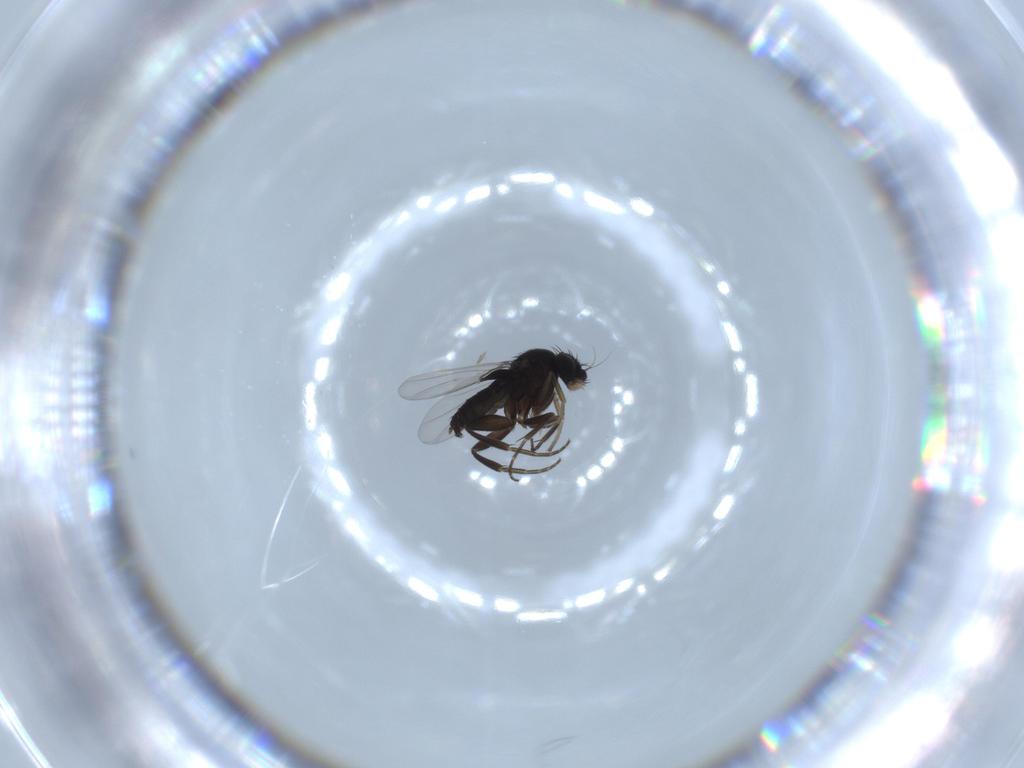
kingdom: Animalia
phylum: Arthropoda
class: Insecta
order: Diptera
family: Phoridae
